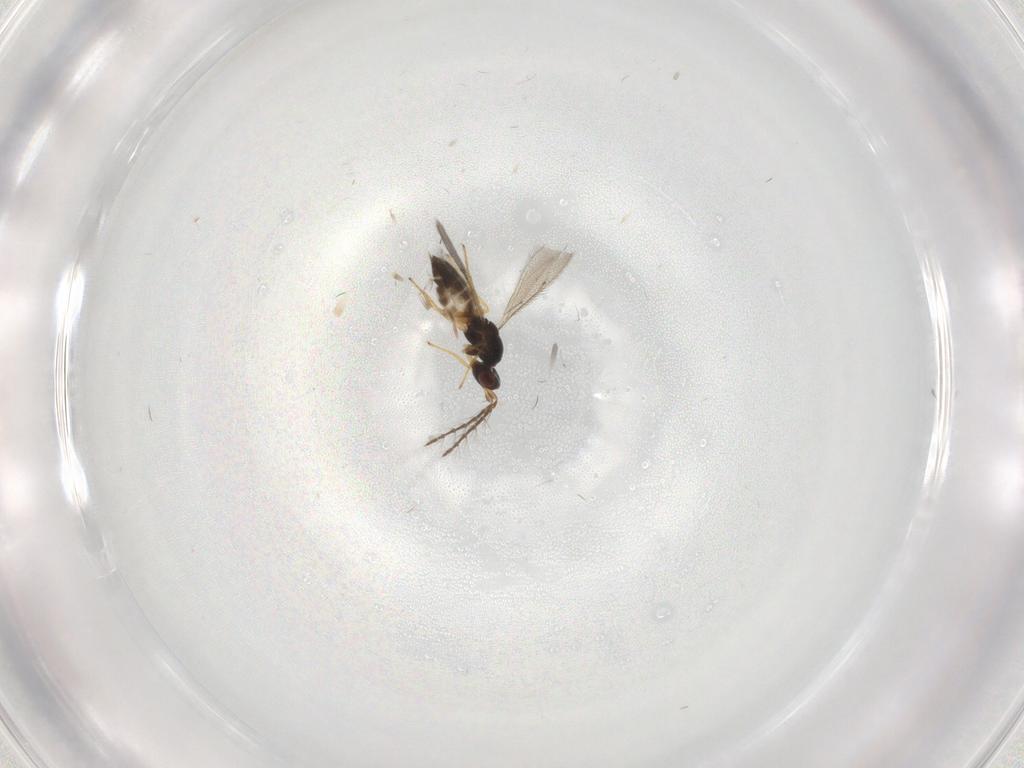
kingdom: Animalia
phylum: Arthropoda
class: Insecta
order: Hymenoptera
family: Eulophidae
